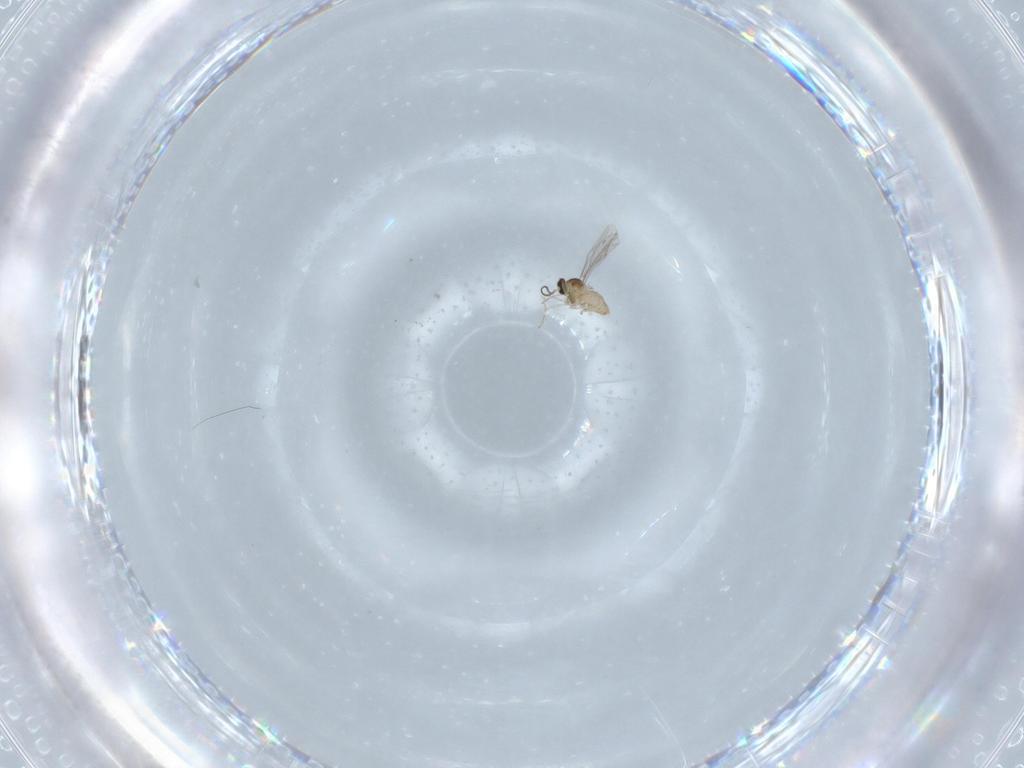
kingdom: Animalia
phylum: Arthropoda
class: Insecta
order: Diptera
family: Cecidomyiidae
